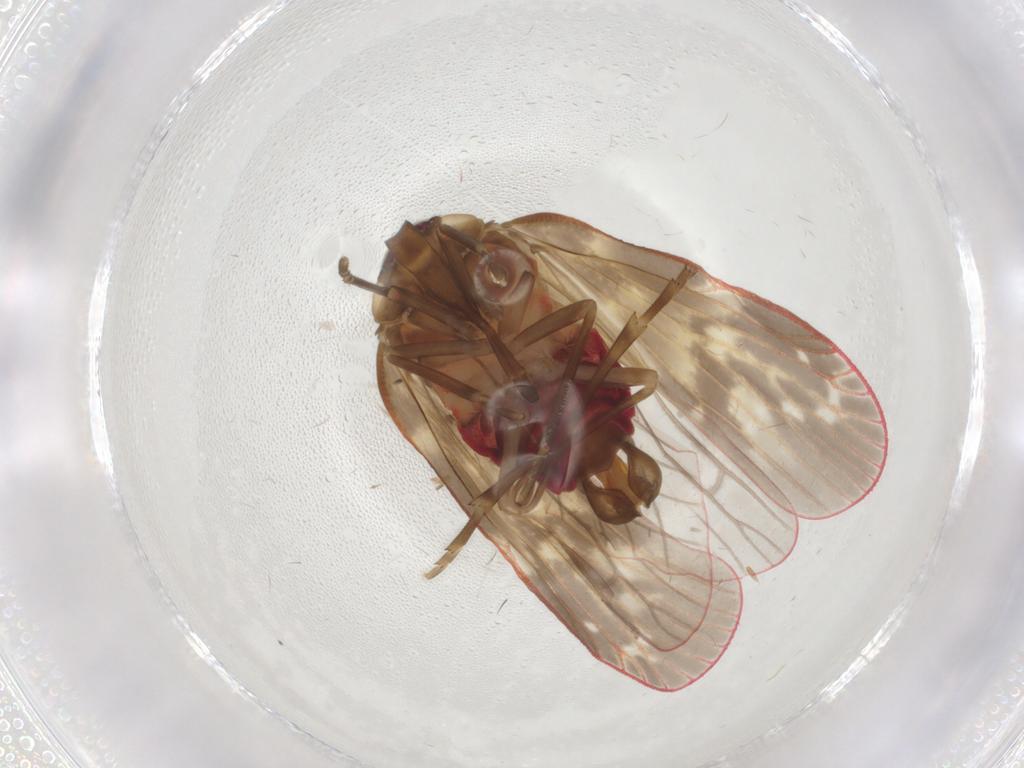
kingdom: Animalia
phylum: Arthropoda
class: Insecta
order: Hemiptera
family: Achilidae
